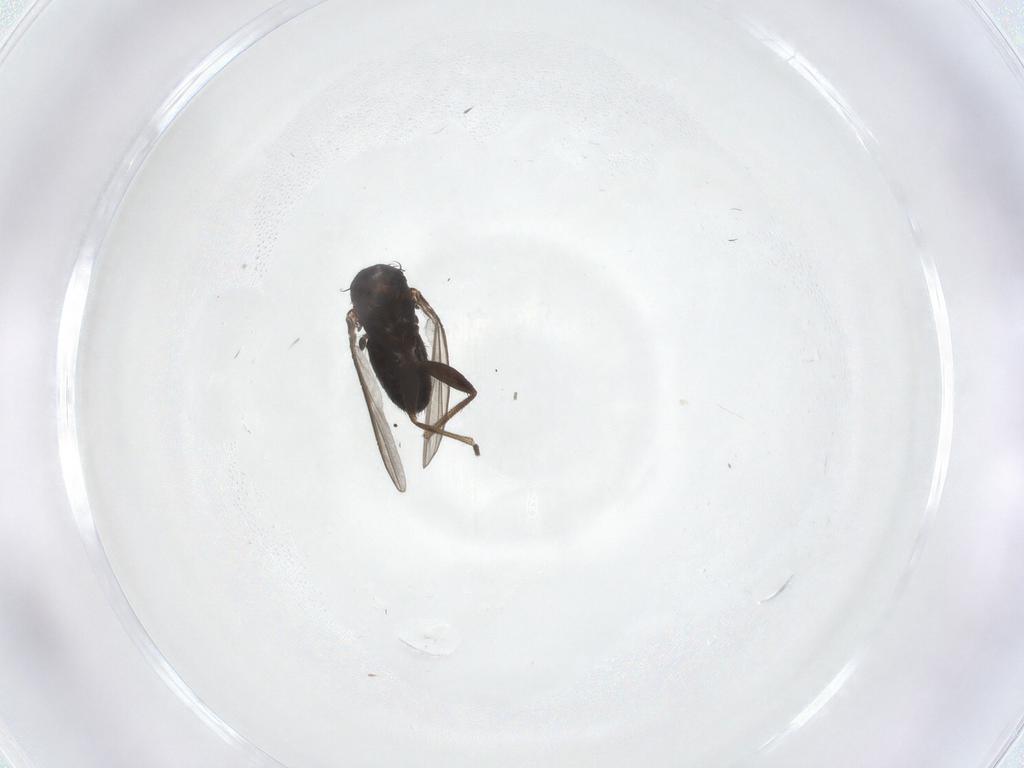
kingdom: Animalia
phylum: Arthropoda
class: Insecta
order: Diptera
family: Dolichopodidae
